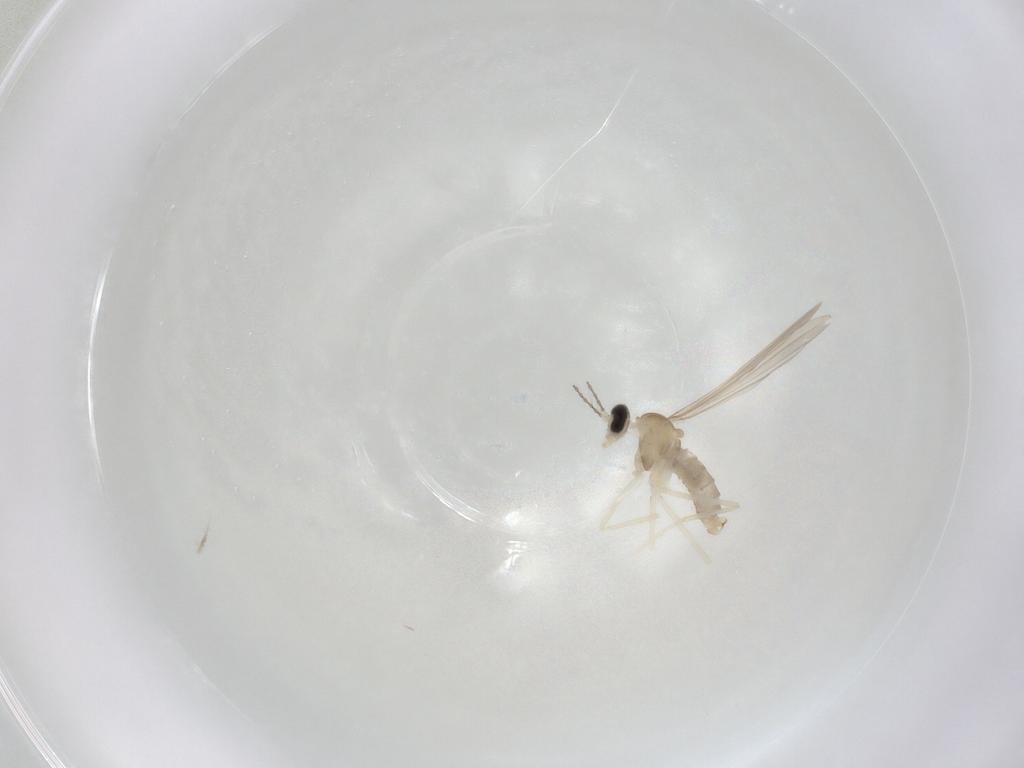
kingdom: Animalia
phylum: Arthropoda
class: Insecta
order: Diptera
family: Cecidomyiidae
